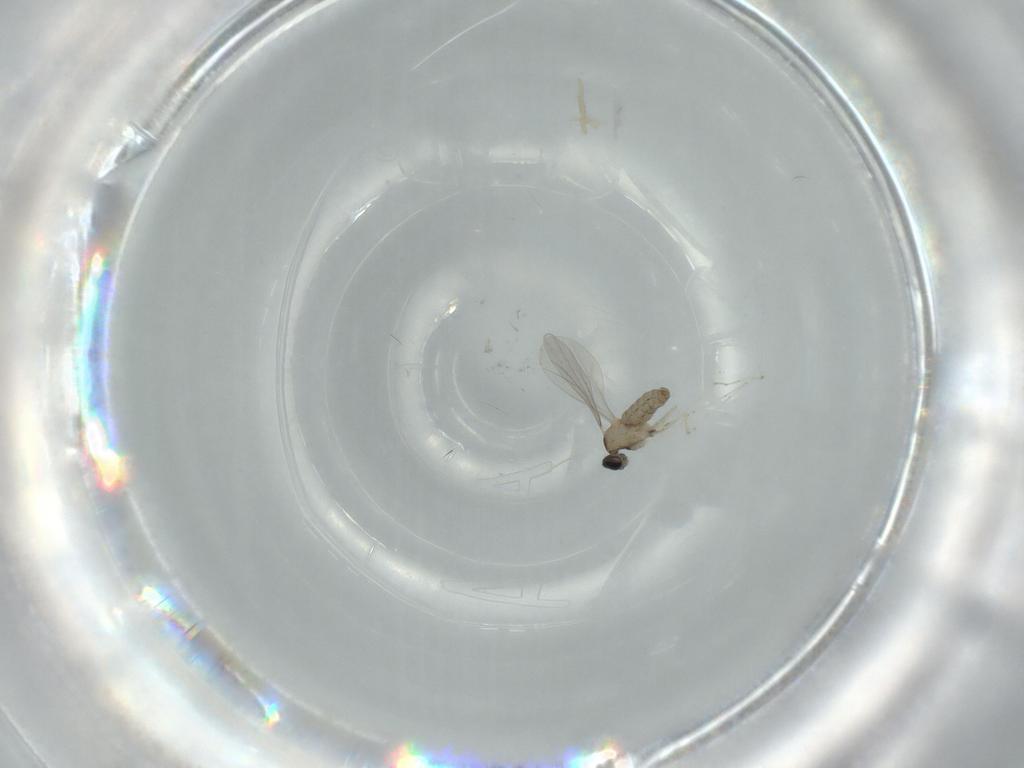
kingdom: Animalia
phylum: Arthropoda
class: Insecta
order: Diptera
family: Cecidomyiidae
